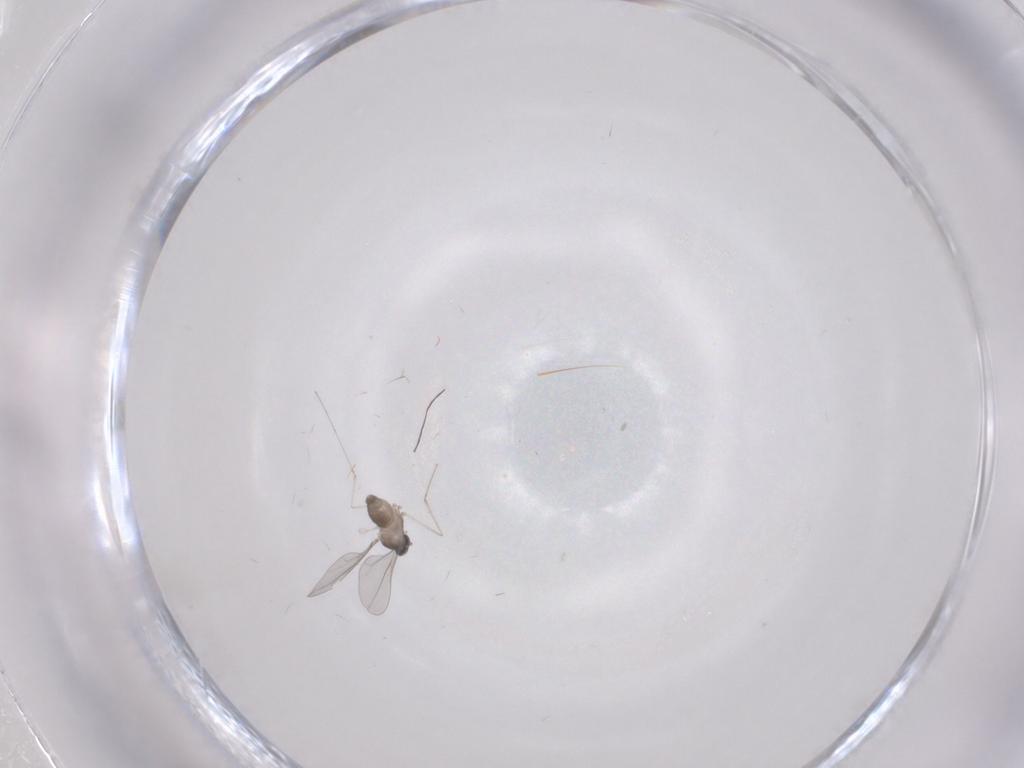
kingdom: Animalia
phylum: Arthropoda
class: Insecta
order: Diptera
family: Cecidomyiidae
